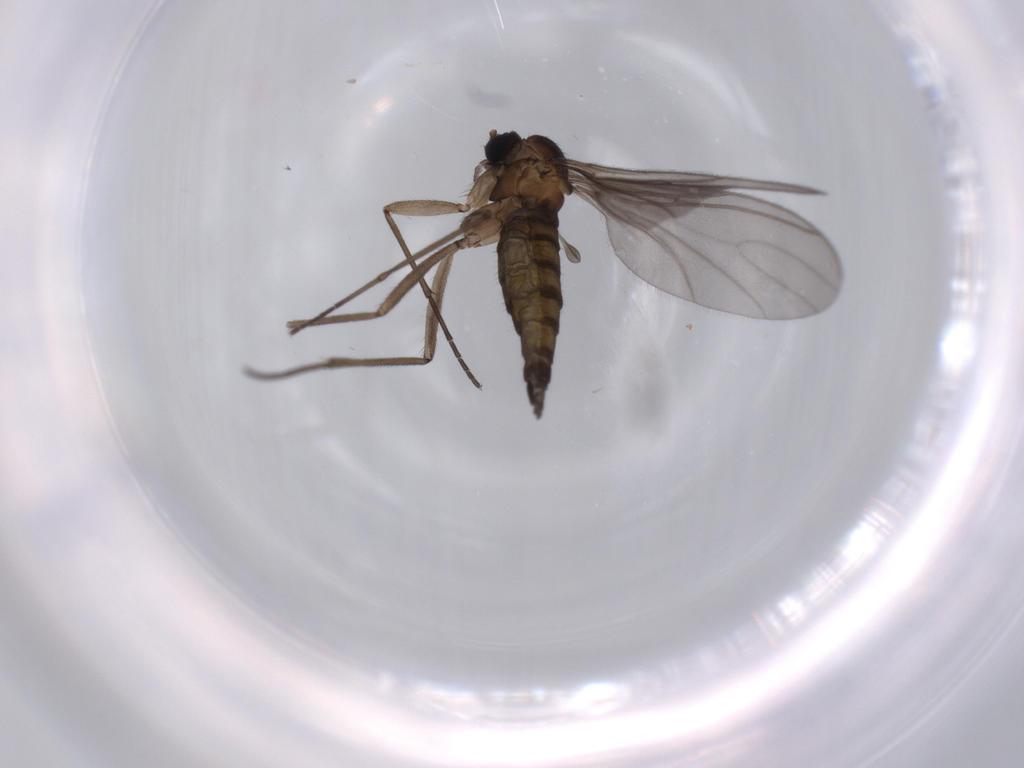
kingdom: Animalia
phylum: Arthropoda
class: Insecta
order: Diptera
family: Sciaridae
